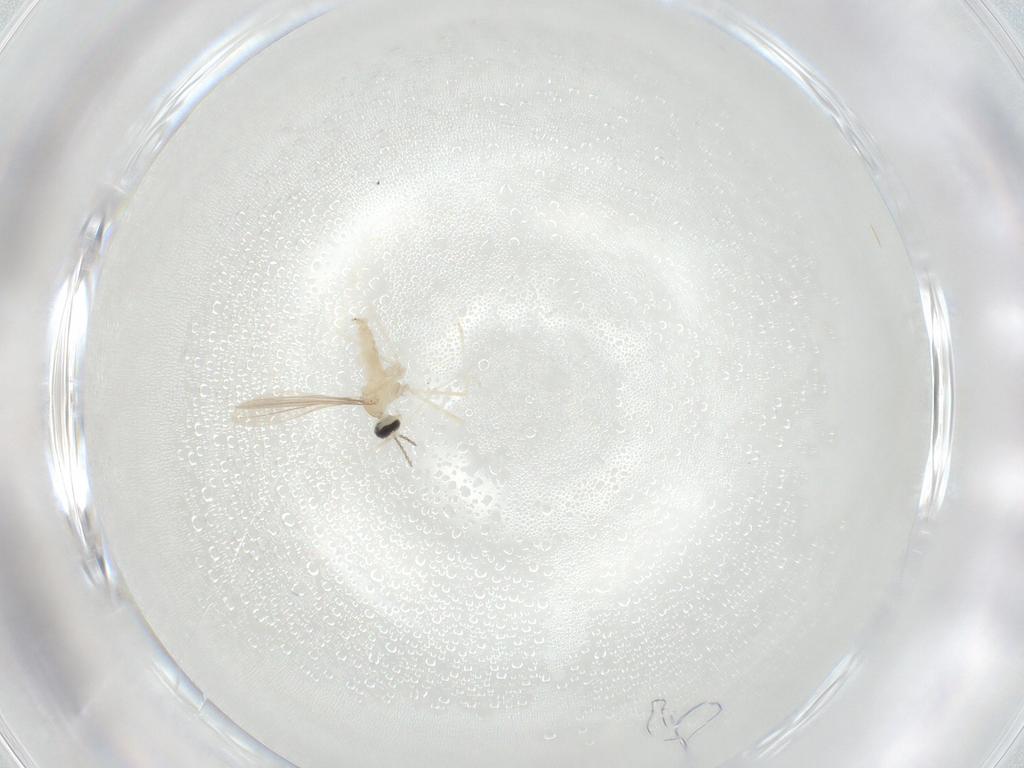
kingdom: Animalia
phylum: Arthropoda
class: Insecta
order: Diptera
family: Cecidomyiidae
